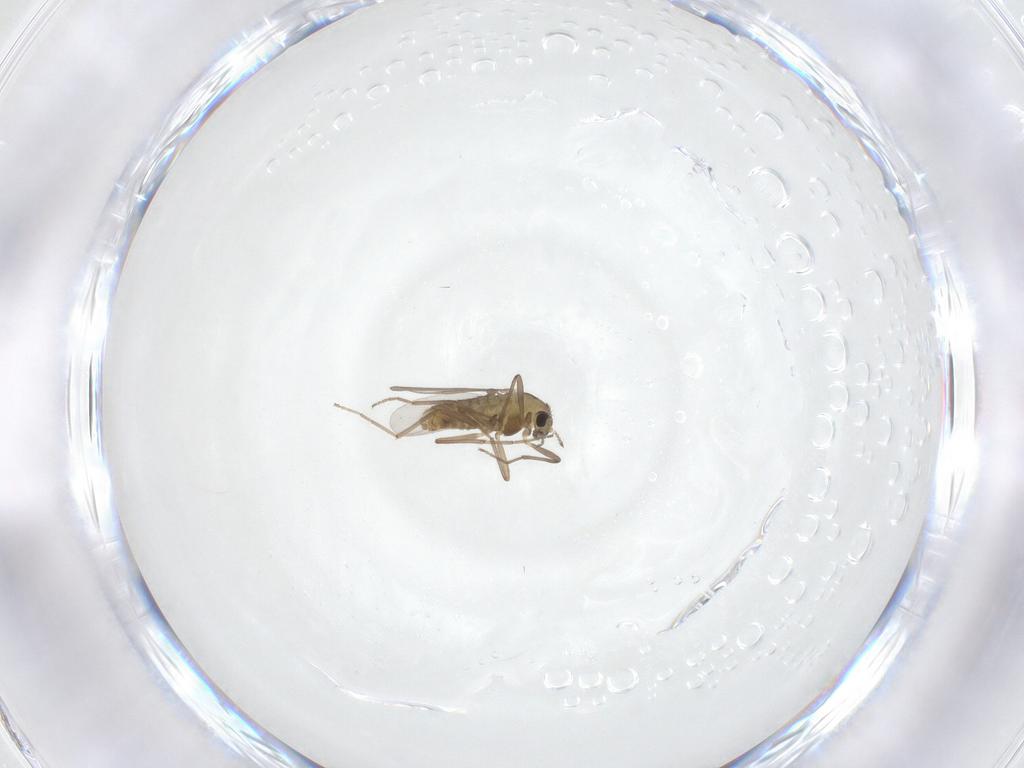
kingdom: Animalia
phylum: Arthropoda
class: Insecta
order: Diptera
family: Chironomidae
